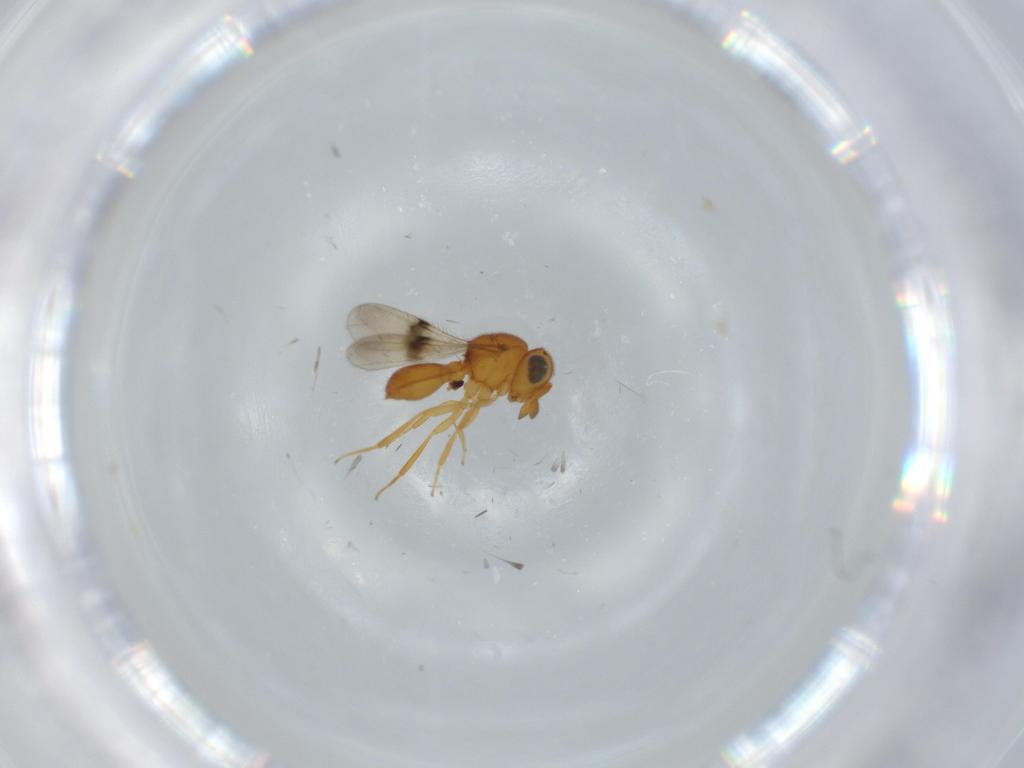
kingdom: Animalia
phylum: Arthropoda
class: Insecta
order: Hymenoptera
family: Scelionidae
